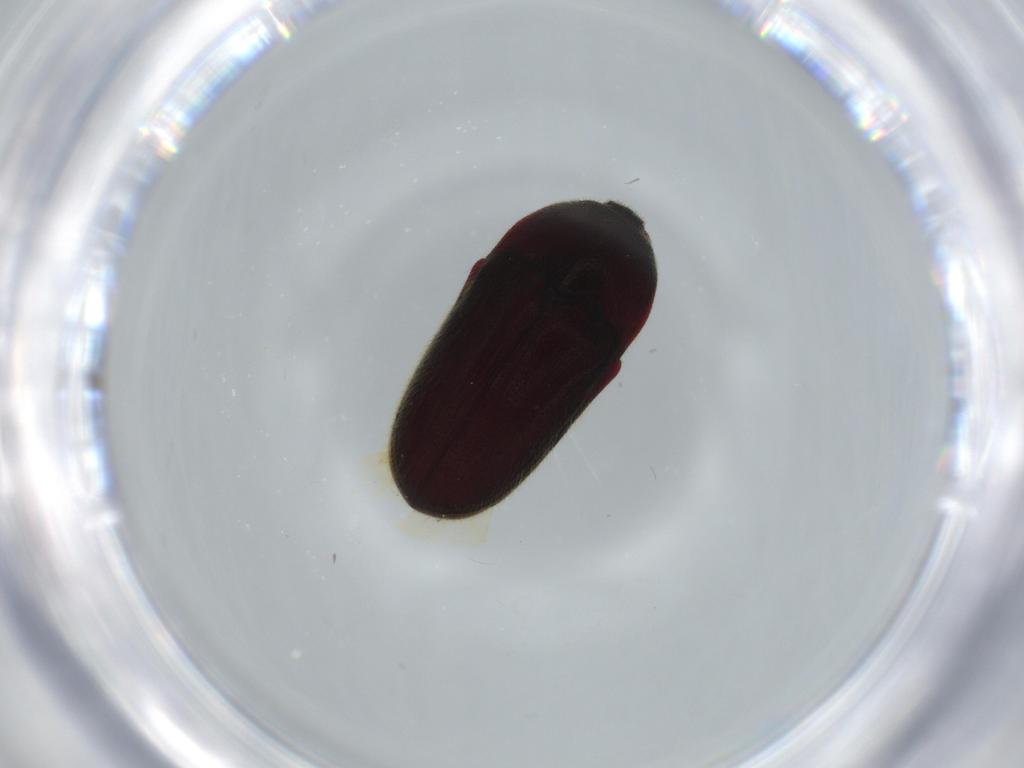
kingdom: Animalia
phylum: Arthropoda
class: Insecta
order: Coleoptera
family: Throscidae
